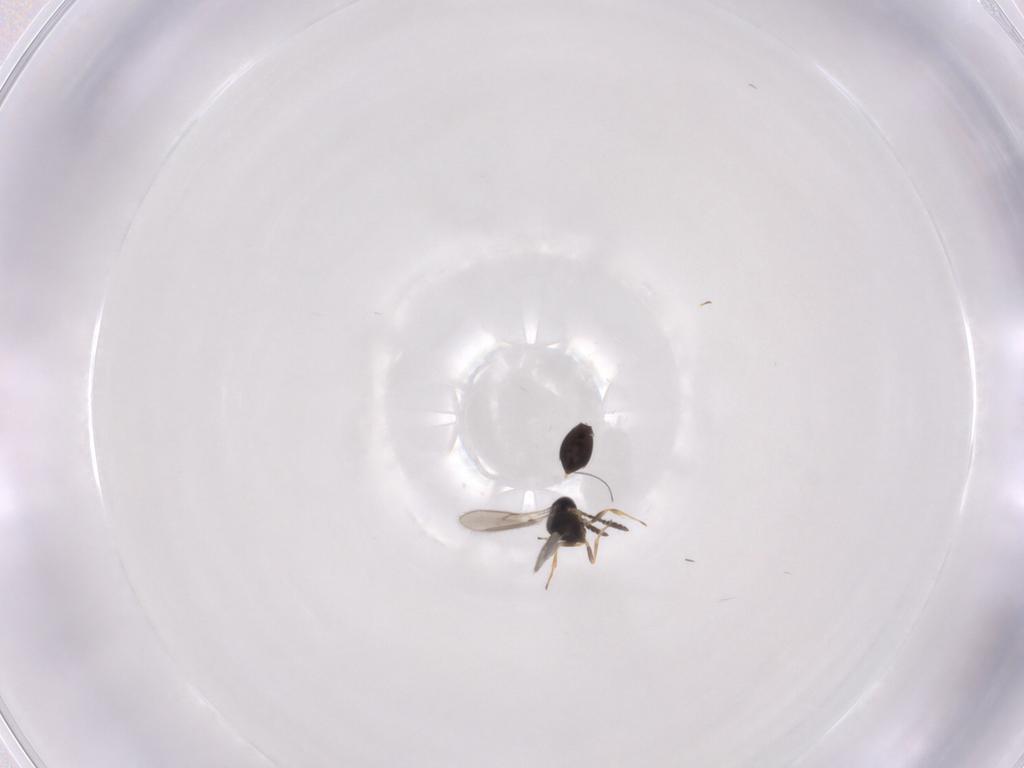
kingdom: Animalia
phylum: Arthropoda
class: Insecta
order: Hymenoptera
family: Scelionidae
